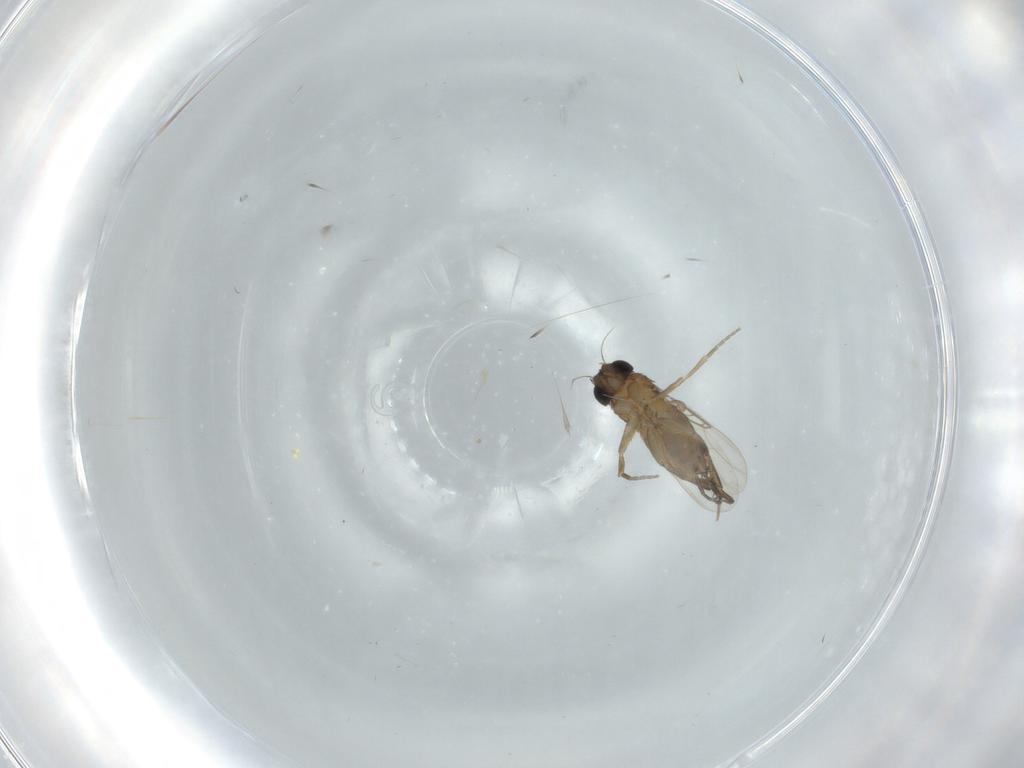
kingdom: Animalia
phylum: Arthropoda
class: Insecta
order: Diptera
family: Phoridae
